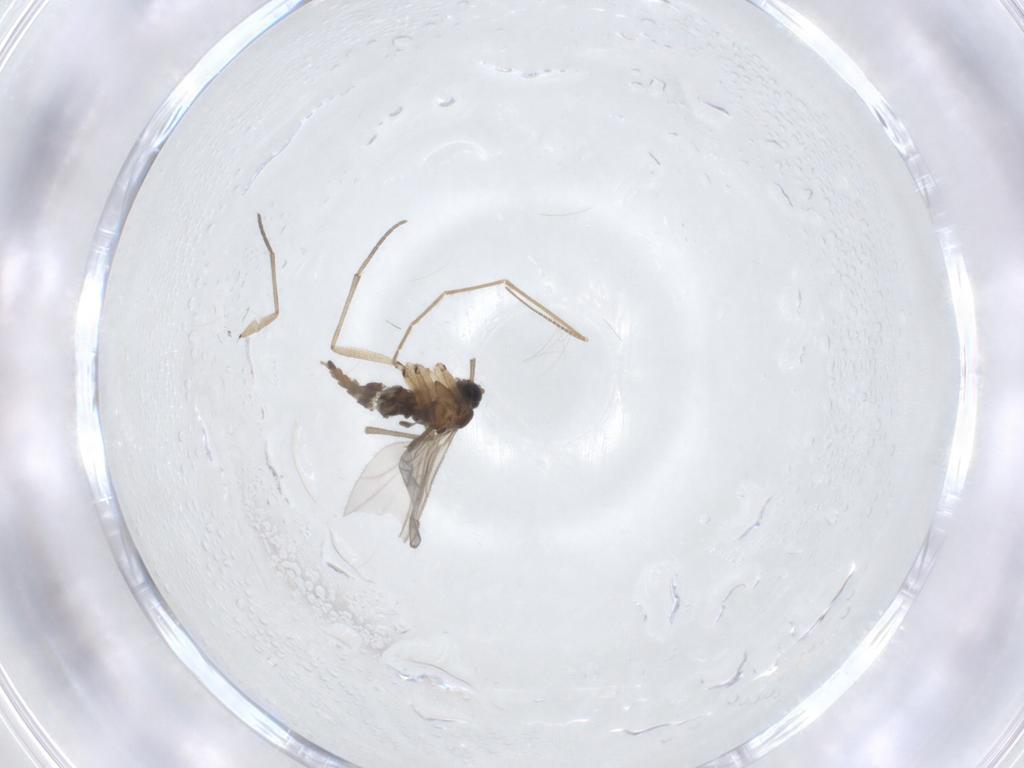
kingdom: Animalia
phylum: Arthropoda
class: Insecta
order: Diptera
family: Sciaridae
